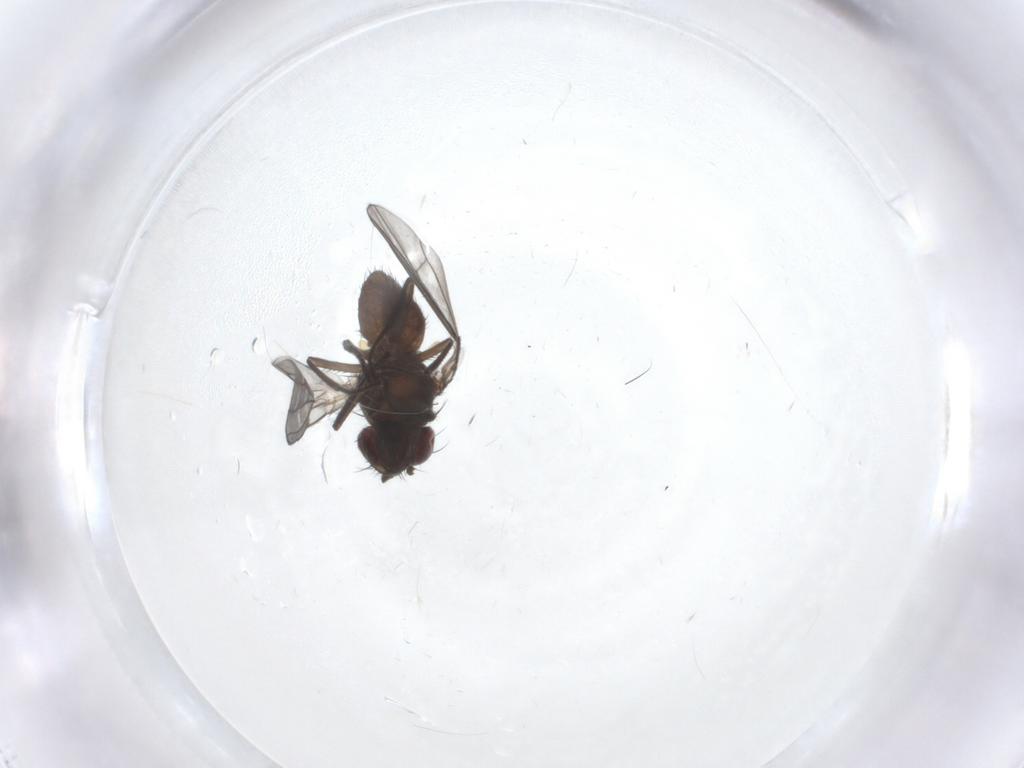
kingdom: Animalia
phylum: Arthropoda
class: Insecta
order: Diptera
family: Ephydridae
